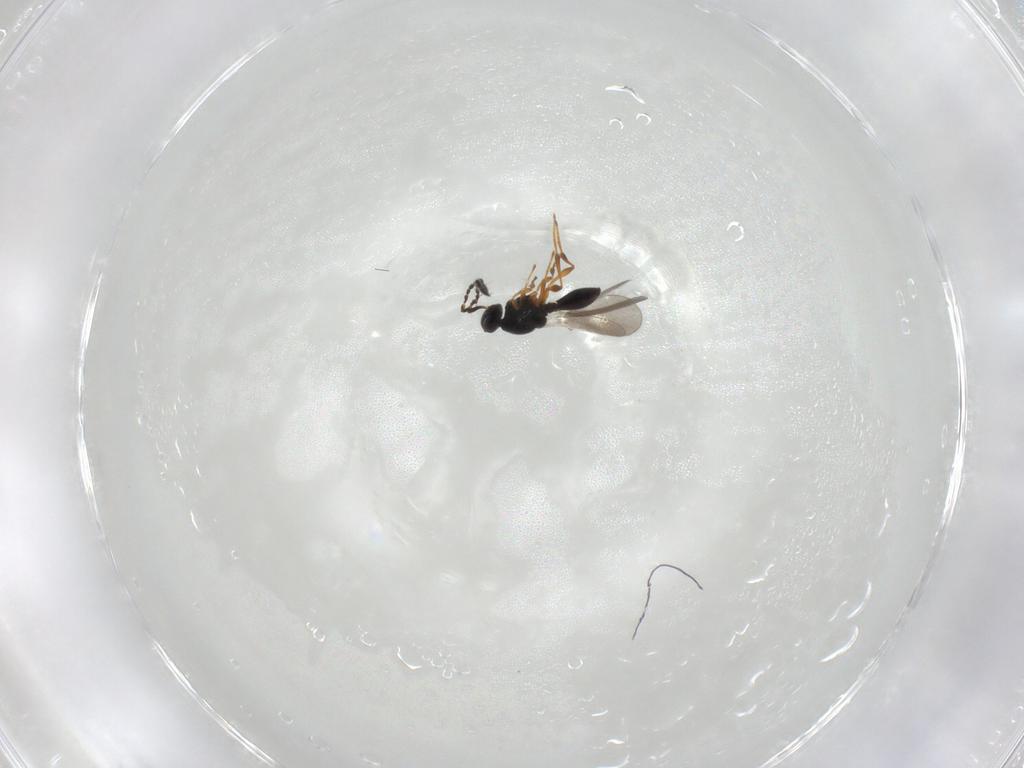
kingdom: Animalia
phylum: Arthropoda
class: Insecta
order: Hymenoptera
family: Platygastridae
